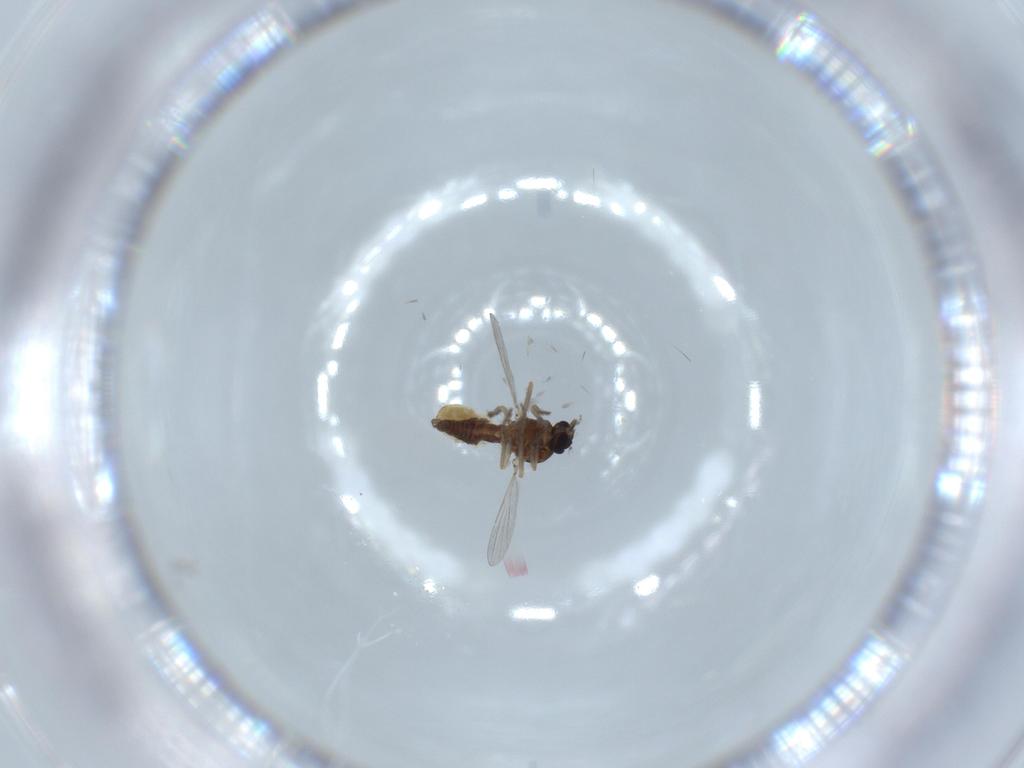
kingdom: Animalia
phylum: Arthropoda
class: Insecta
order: Diptera
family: Ceratopogonidae
